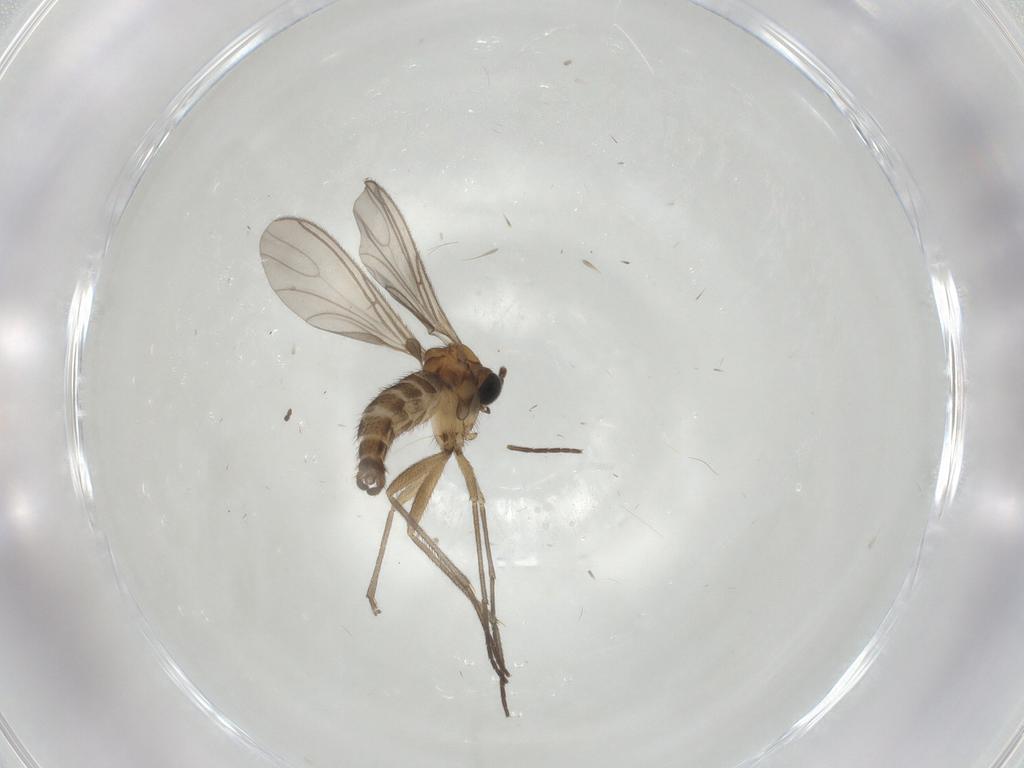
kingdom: Animalia
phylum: Arthropoda
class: Insecta
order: Diptera
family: Sciaridae
